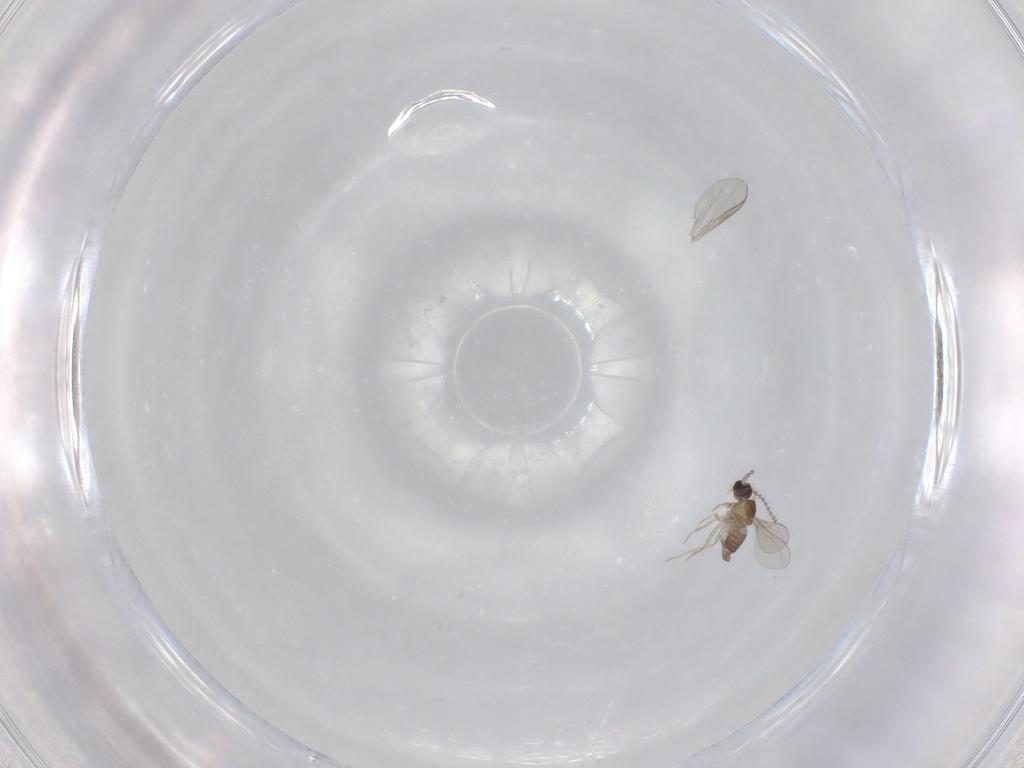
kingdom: Animalia
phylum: Arthropoda
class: Insecta
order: Diptera
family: Cecidomyiidae
